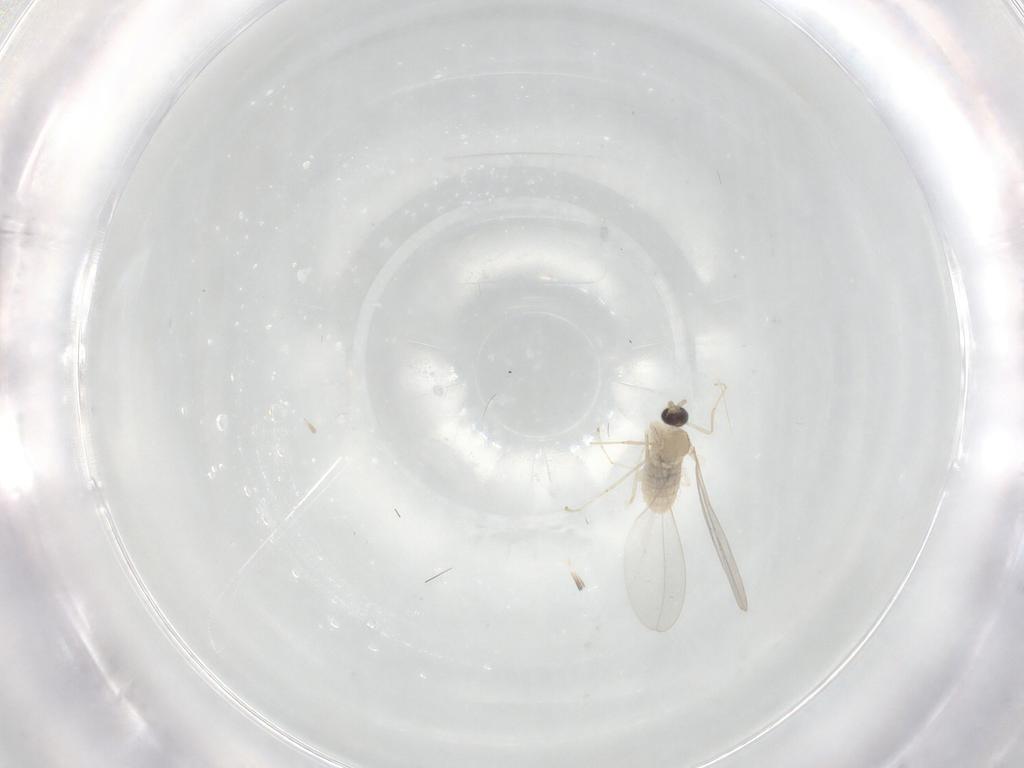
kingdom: Animalia
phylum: Arthropoda
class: Insecta
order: Diptera
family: Cecidomyiidae
